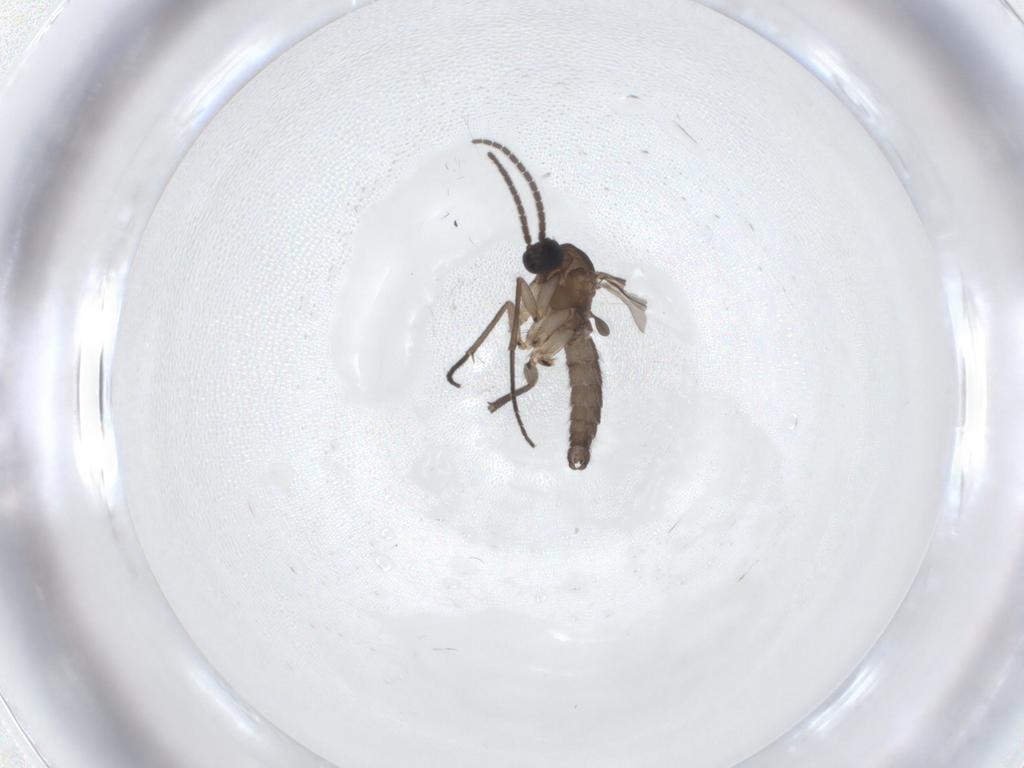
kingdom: Animalia
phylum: Arthropoda
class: Insecta
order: Diptera
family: Sciaridae
